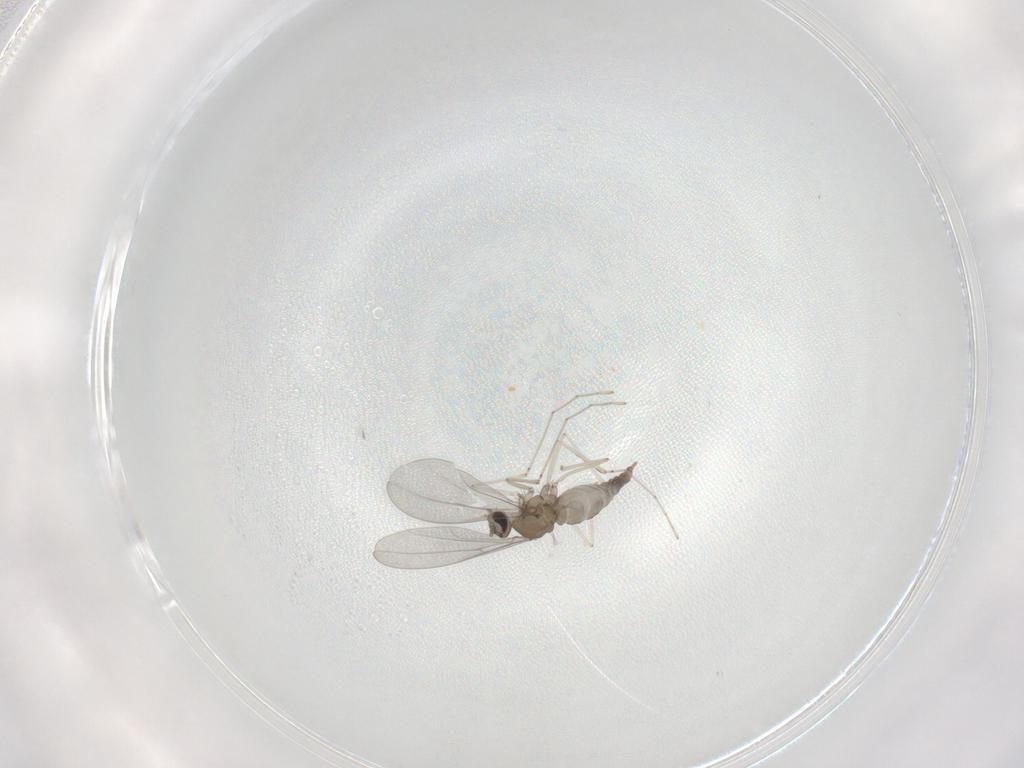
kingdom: Animalia
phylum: Arthropoda
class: Insecta
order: Diptera
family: Cecidomyiidae
